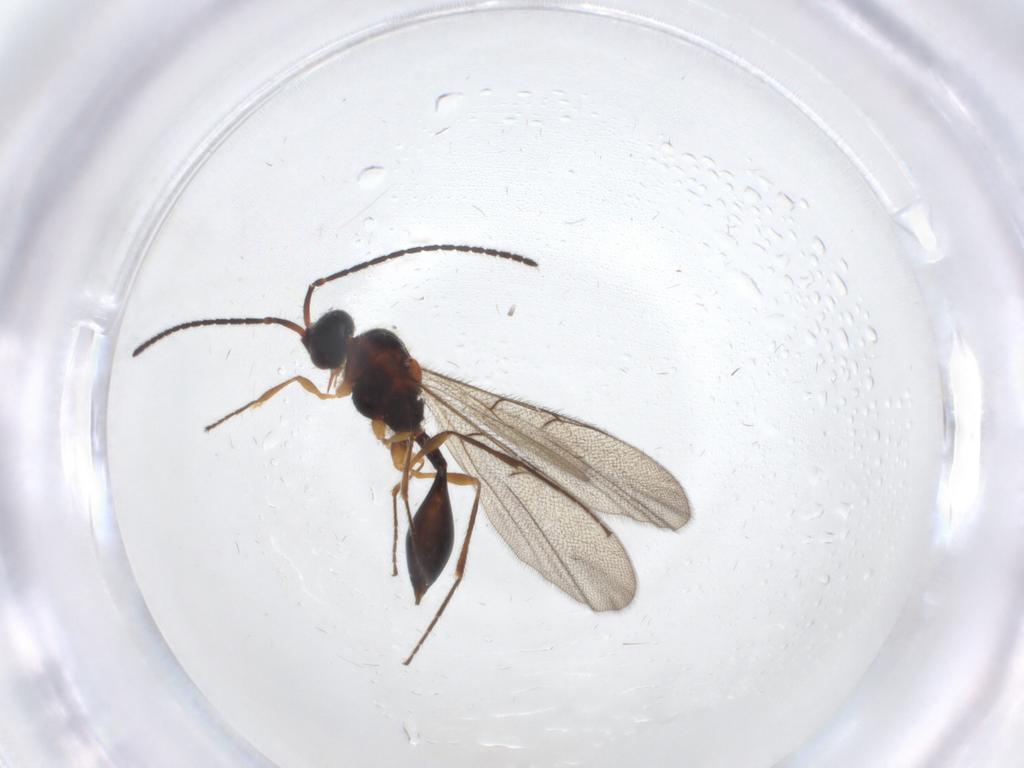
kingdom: Animalia
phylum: Arthropoda
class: Insecta
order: Hymenoptera
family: Diapriidae
